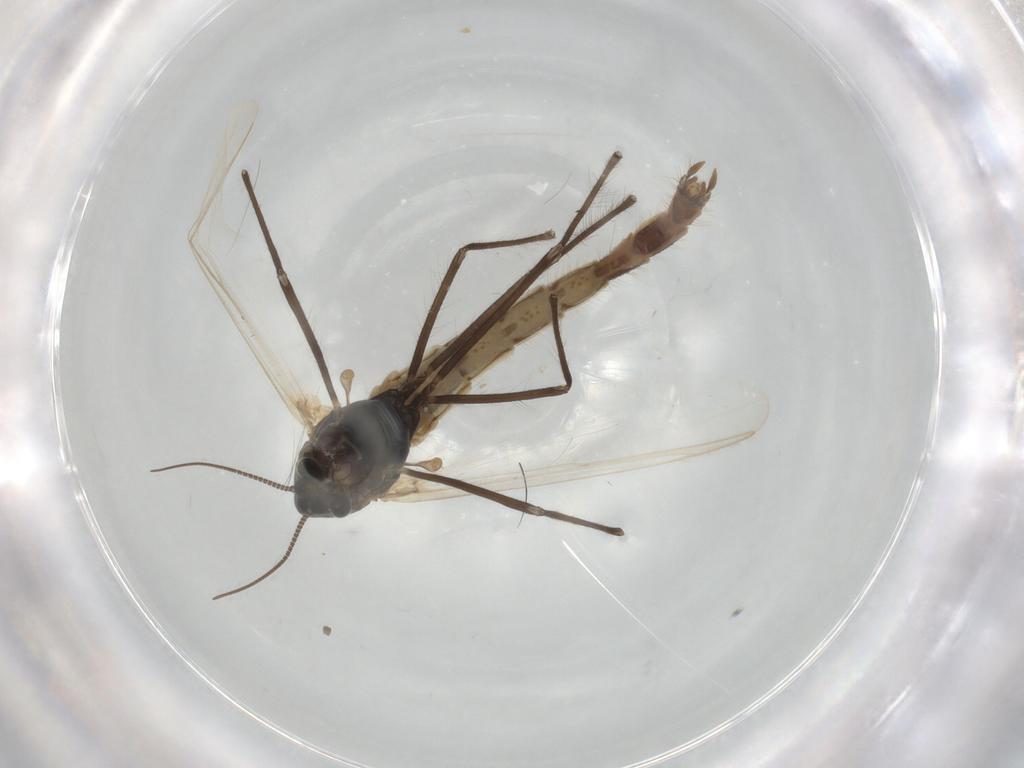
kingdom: Animalia
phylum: Arthropoda
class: Insecta
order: Diptera
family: Chironomidae
